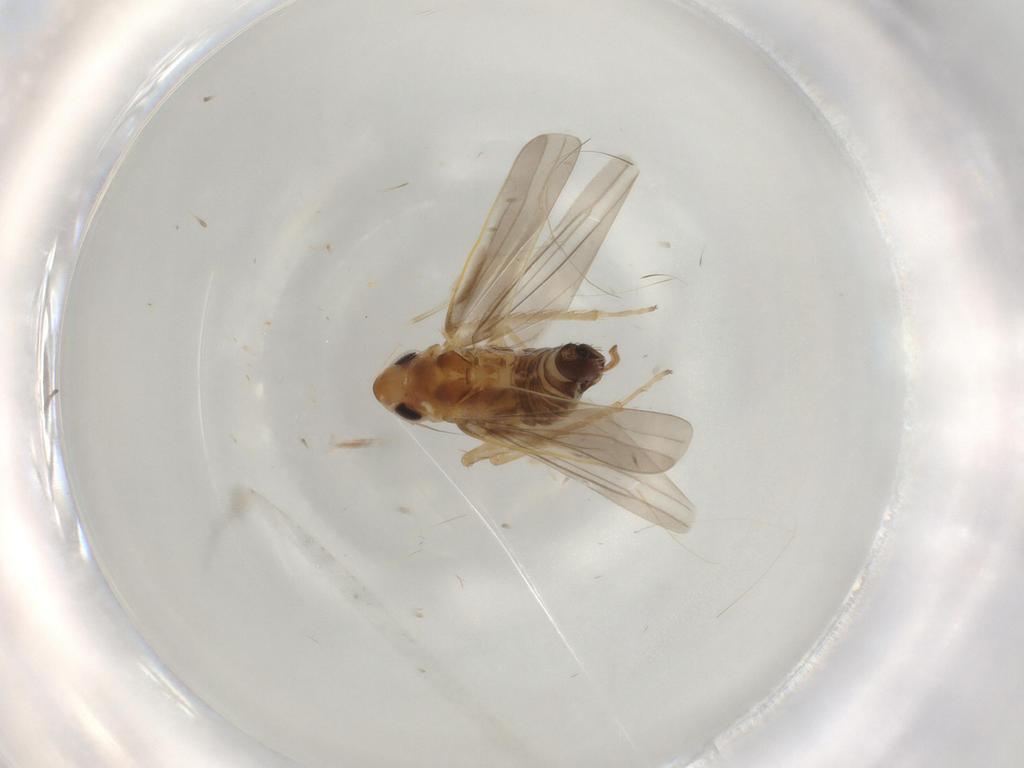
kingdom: Animalia
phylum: Arthropoda
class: Insecta
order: Hemiptera
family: Cicadellidae
